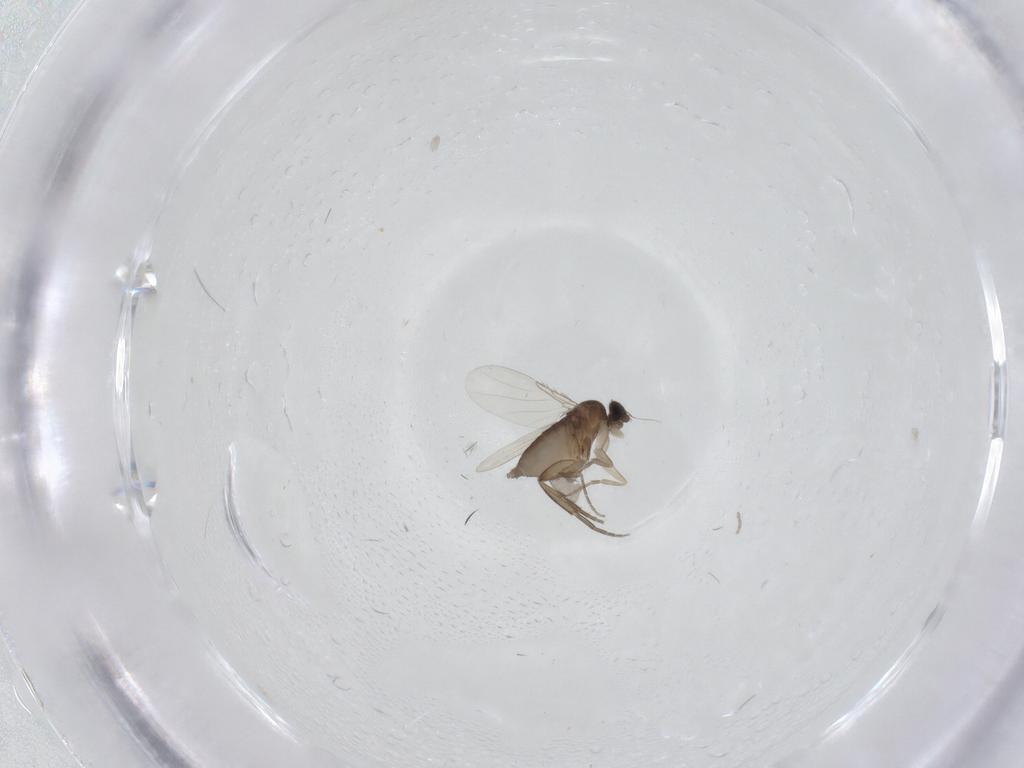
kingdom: Animalia
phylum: Arthropoda
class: Insecta
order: Diptera
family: Phoridae
